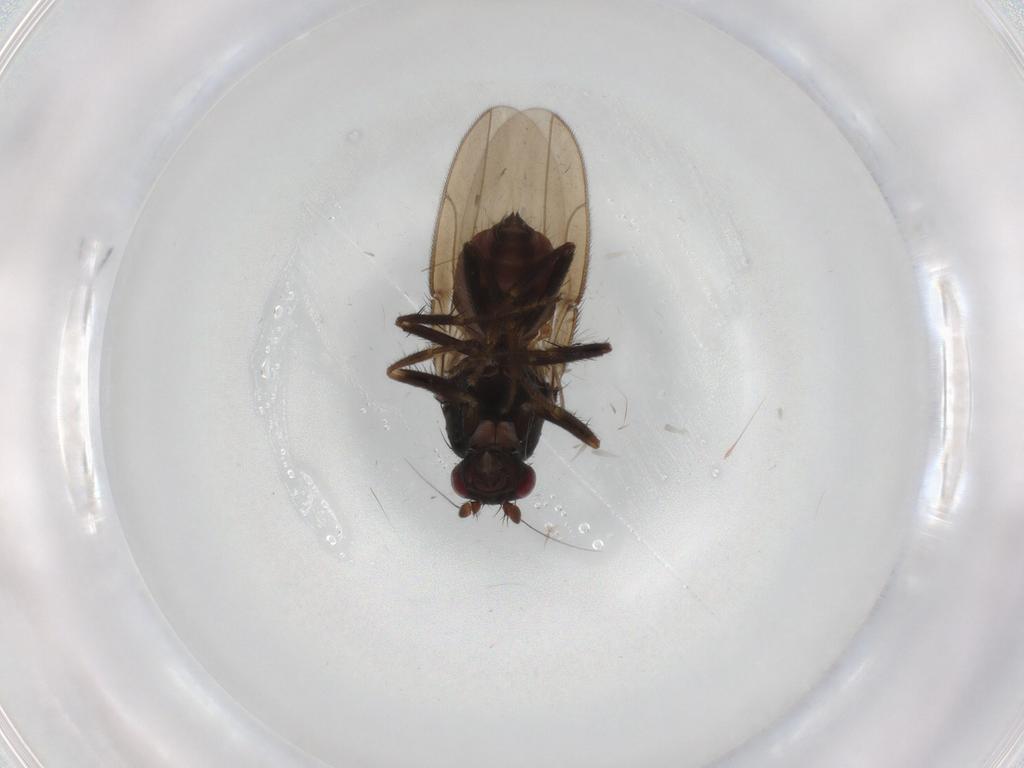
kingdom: Animalia
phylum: Arthropoda
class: Insecta
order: Diptera
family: Sphaeroceridae
